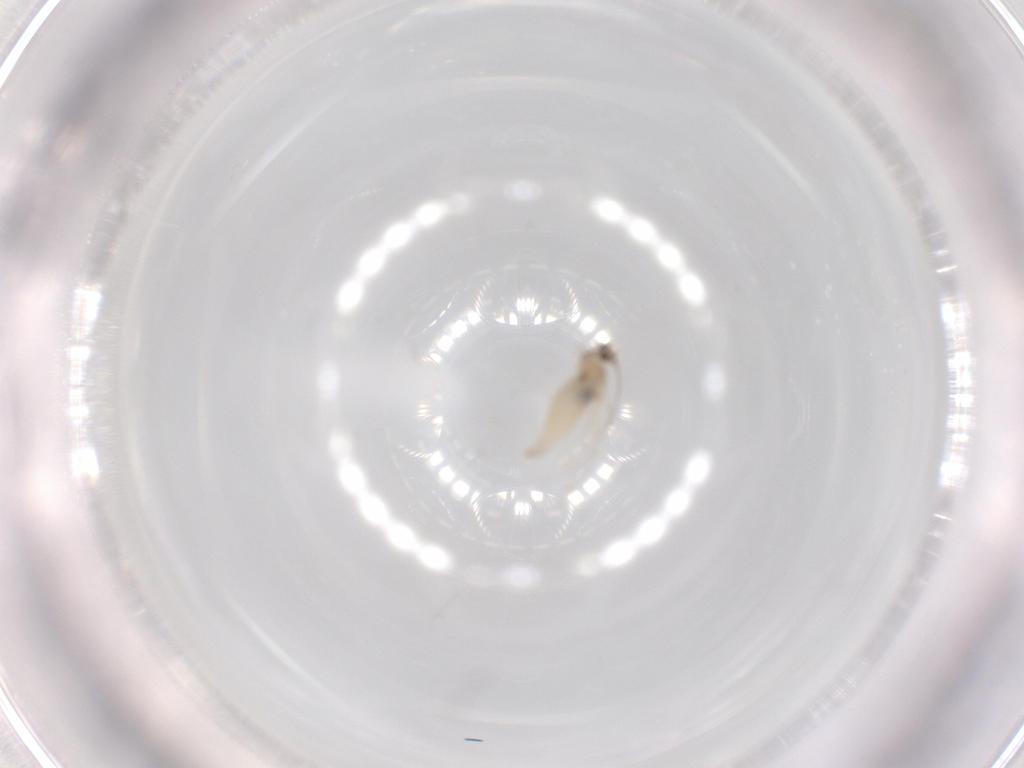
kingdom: Animalia
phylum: Arthropoda
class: Insecta
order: Diptera
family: Cecidomyiidae
